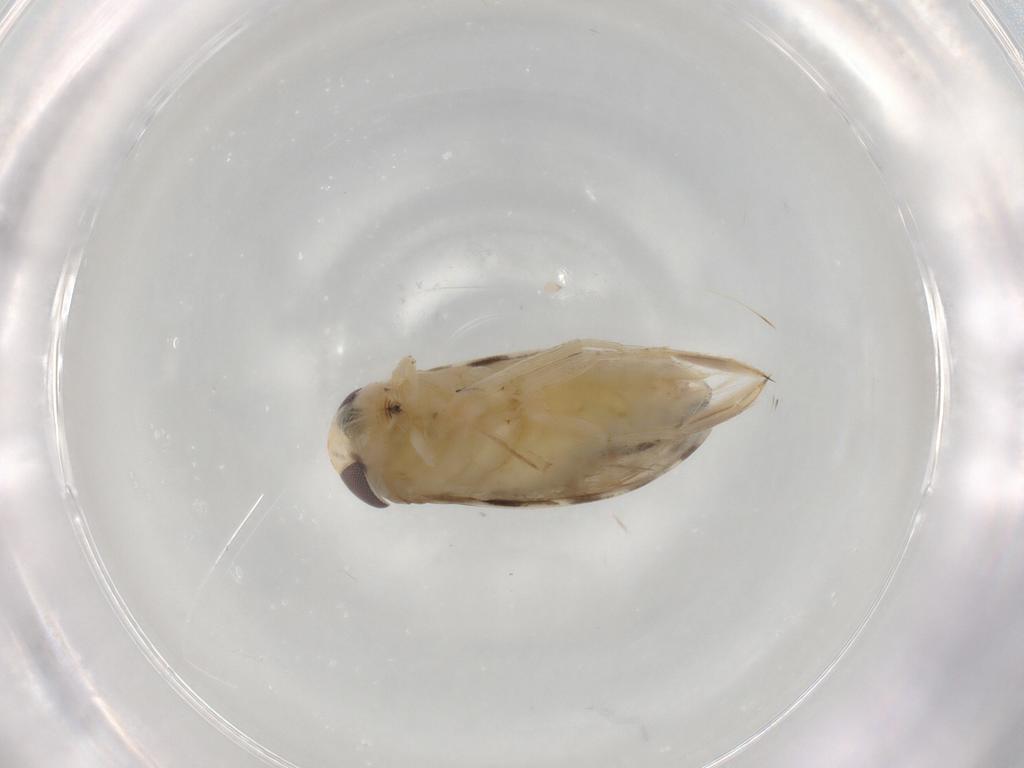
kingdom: Animalia
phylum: Arthropoda
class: Insecta
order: Hemiptera
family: Corixidae
